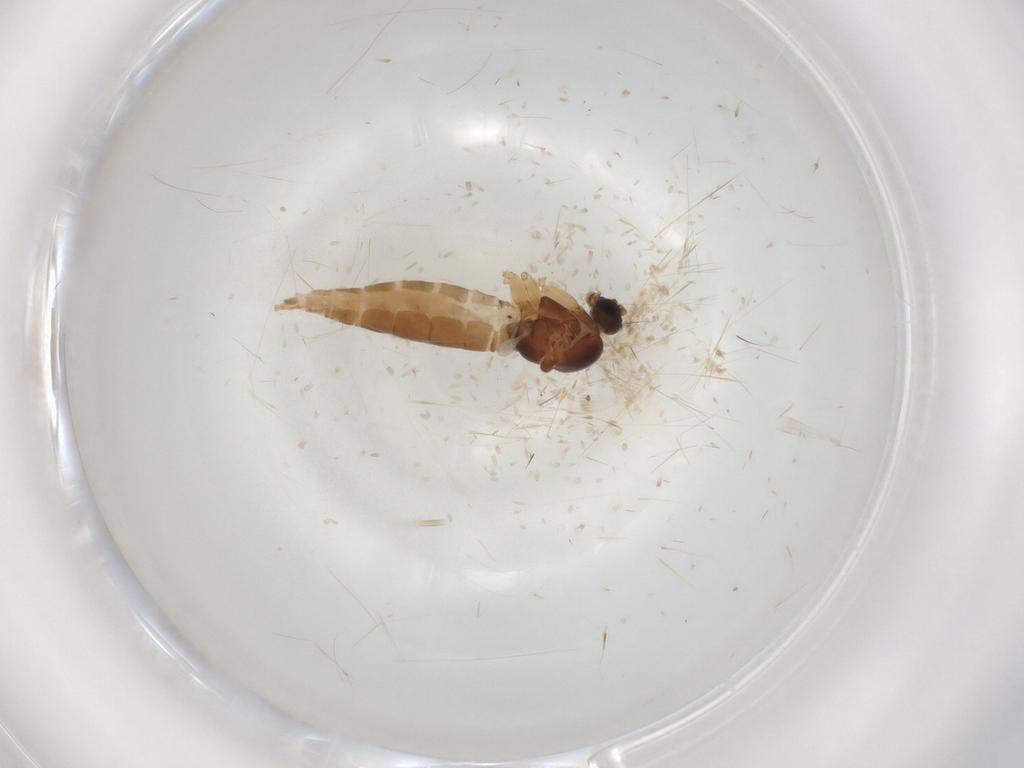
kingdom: Animalia
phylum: Arthropoda
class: Insecta
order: Diptera
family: Sciaridae
